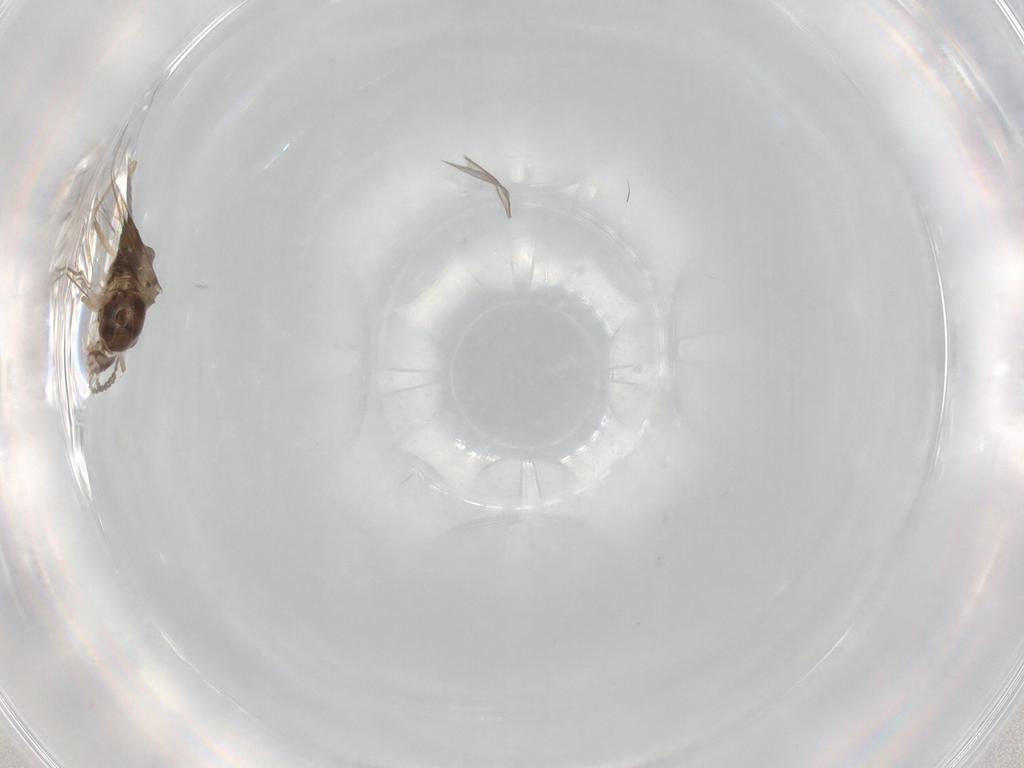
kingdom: Animalia
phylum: Arthropoda
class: Insecta
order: Diptera
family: Cecidomyiidae
